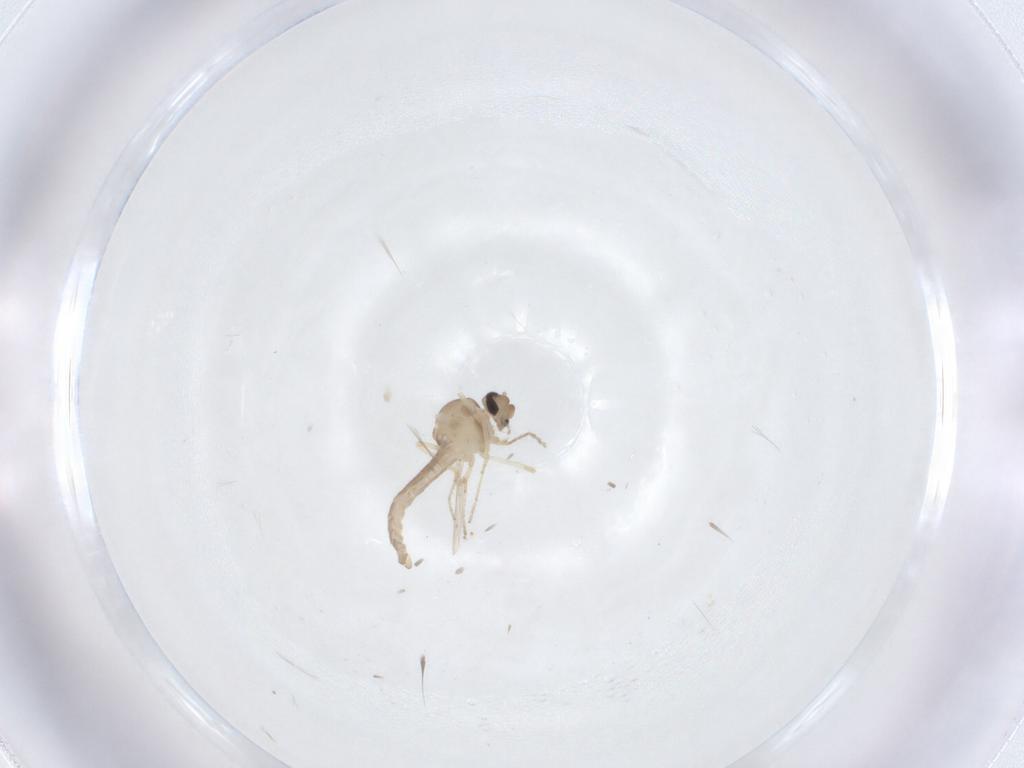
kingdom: Animalia
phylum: Arthropoda
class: Insecta
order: Diptera
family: Ceratopogonidae
